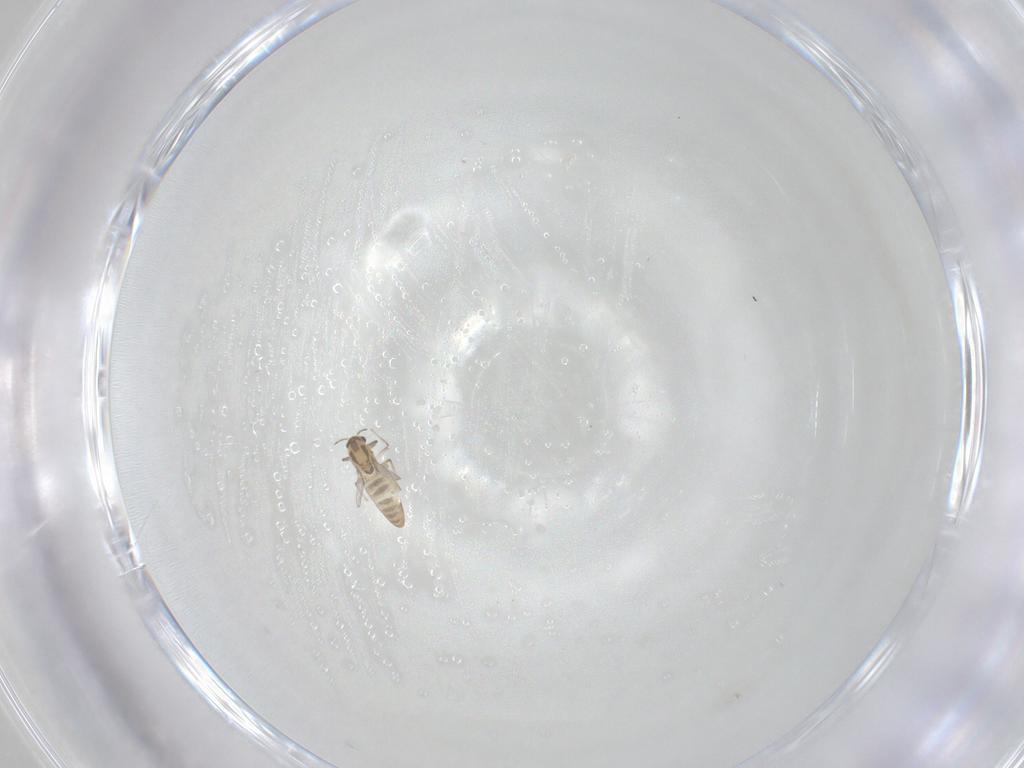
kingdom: Animalia
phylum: Arthropoda
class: Insecta
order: Diptera
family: Chironomidae
